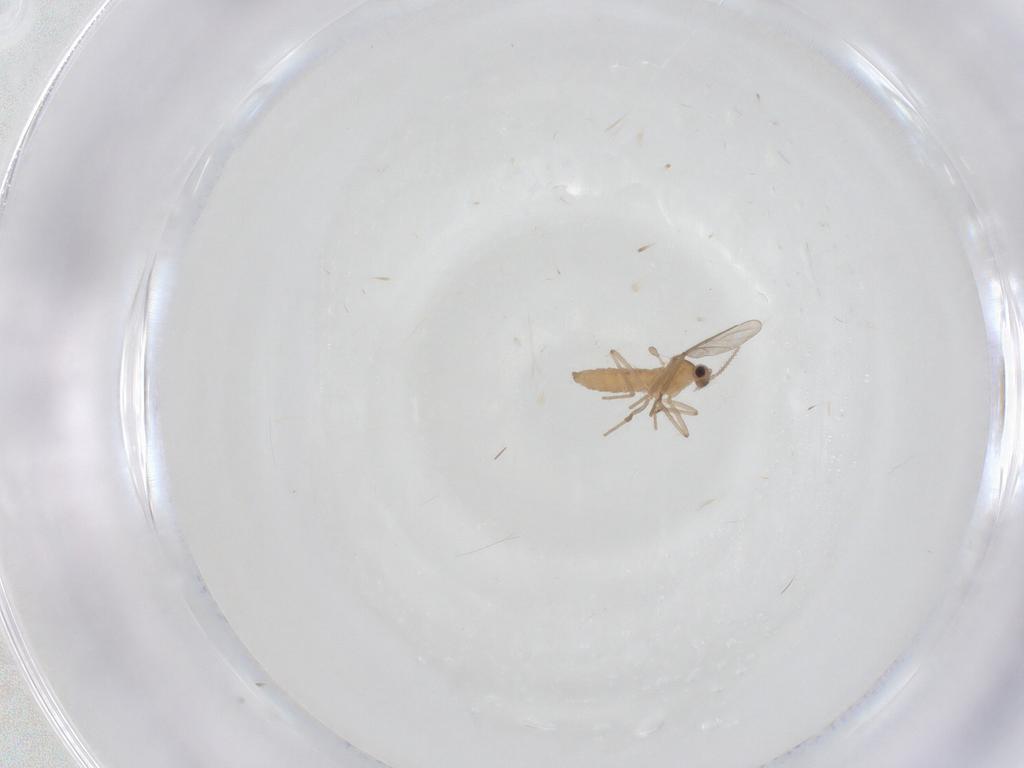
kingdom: Animalia
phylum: Arthropoda
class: Insecta
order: Diptera
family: Cecidomyiidae
